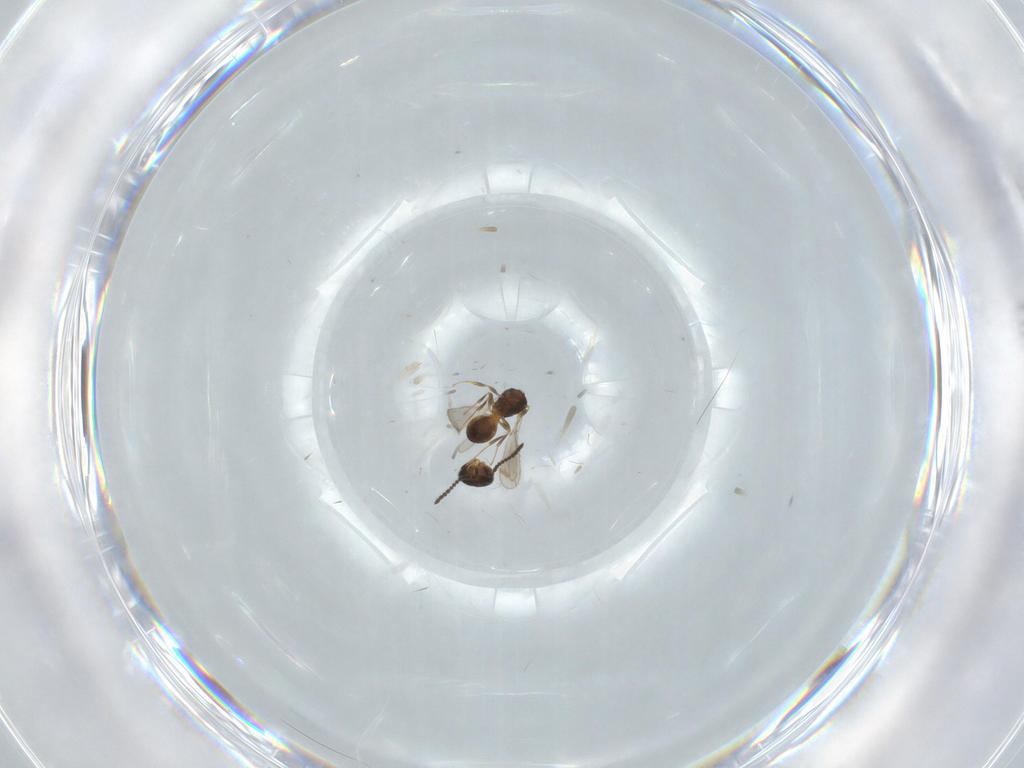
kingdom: Animalia
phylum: Arthropoda
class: Insecta
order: Hymenoptera
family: Scelionidae
